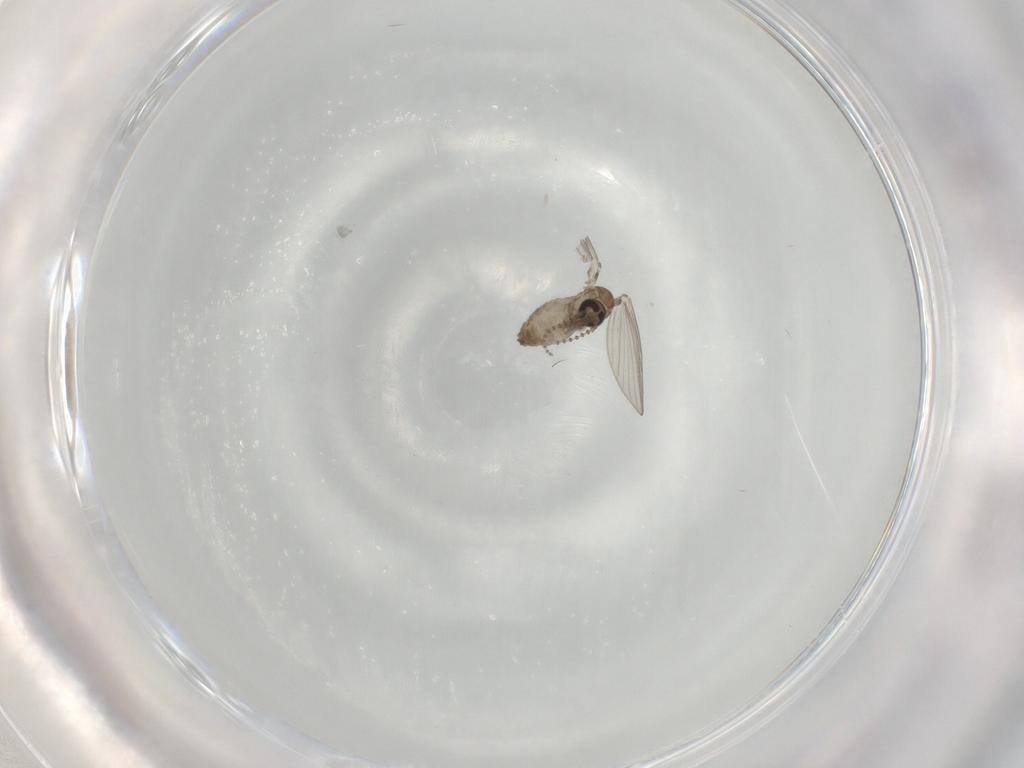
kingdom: Animalia
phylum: Arthropoda
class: Insecta
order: Diptera
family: Psychodidae
